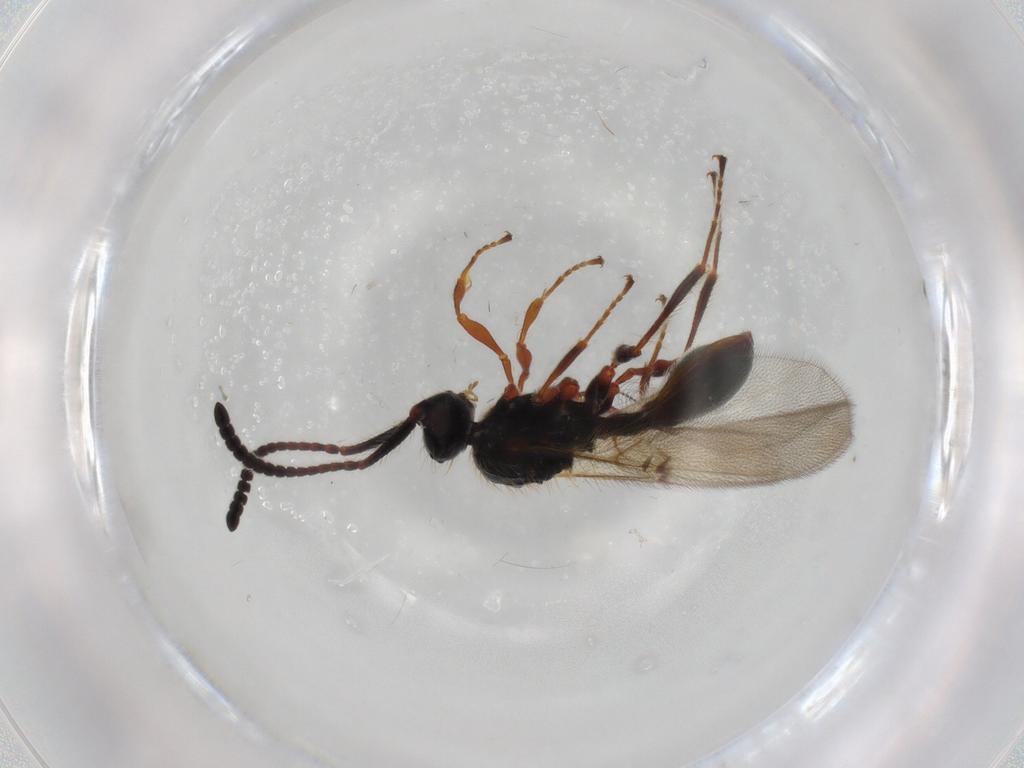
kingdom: Animalia
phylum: Arthropoda
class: Insecta
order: Hymenoptera
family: Diapriidae
